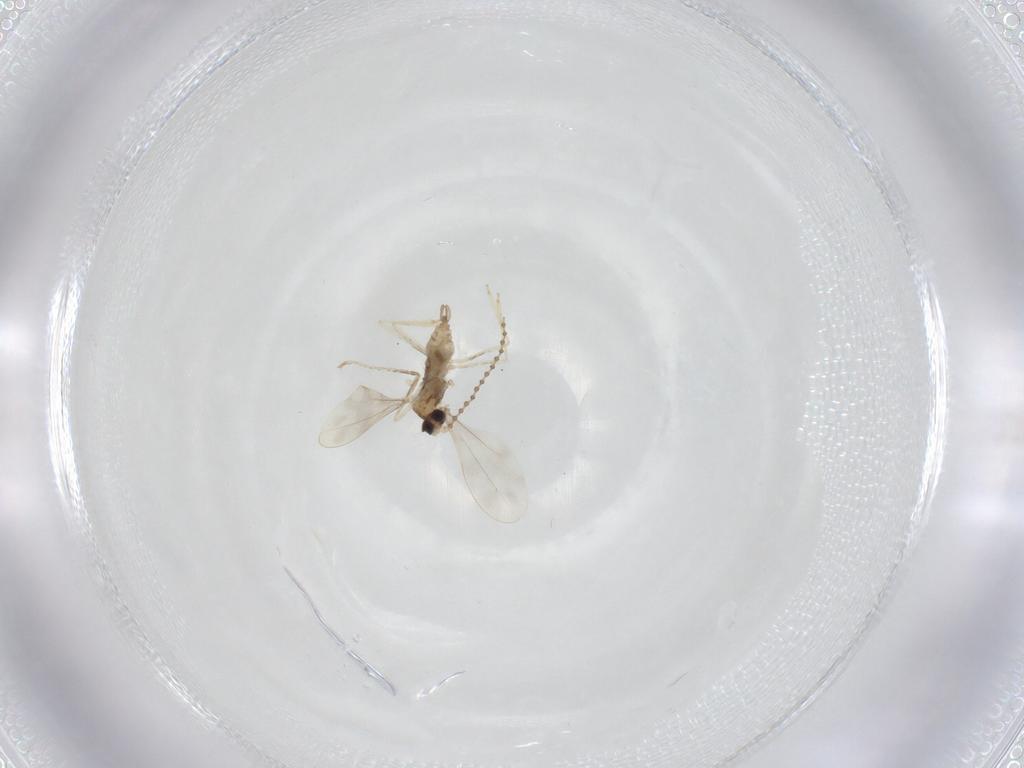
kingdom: Animalia
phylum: Arthropoda
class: Insecta
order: Diptera
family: Cecidomyiidae
